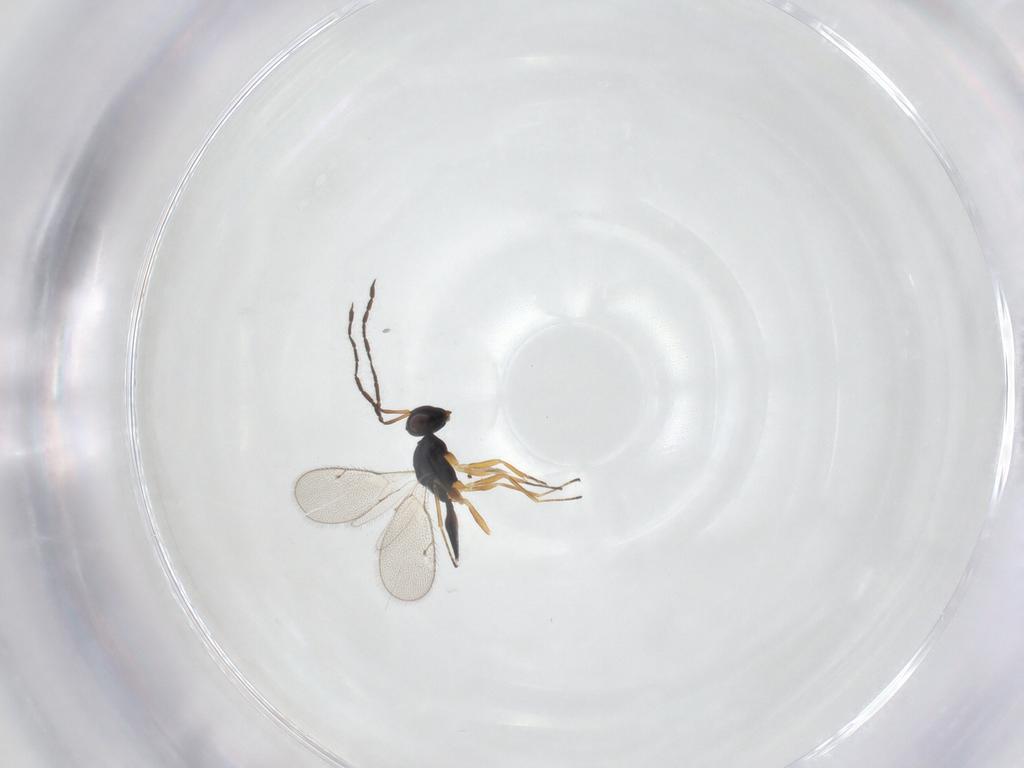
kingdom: Animalia
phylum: Arthropoda
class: Insecta
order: Hymenoptera
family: Pteromalidae
